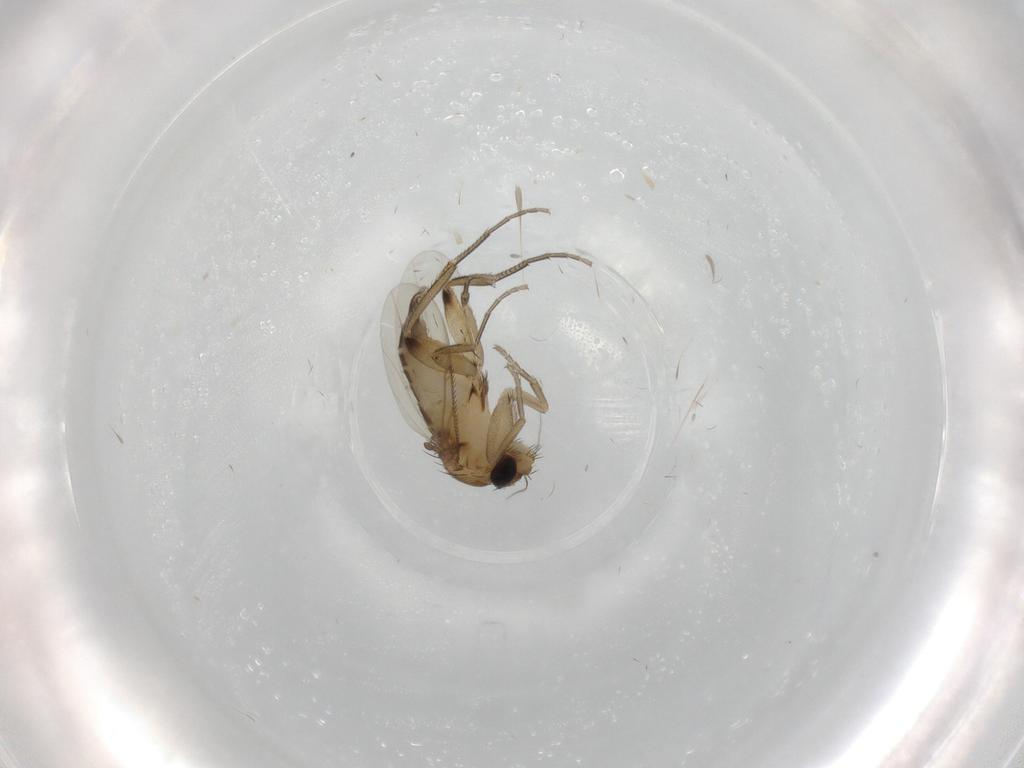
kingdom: Animalia
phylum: Arthropoda
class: Insecta
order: Diptera
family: Phoridae
